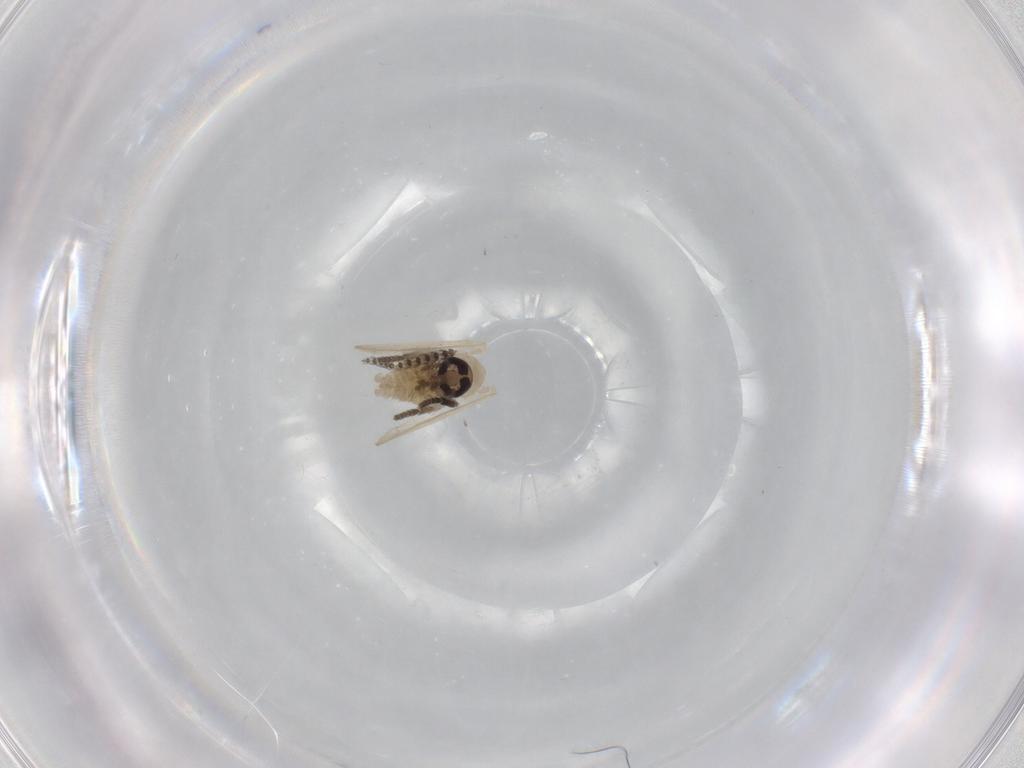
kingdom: Animalia
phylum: Arthropoda
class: Insecta
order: Diptera
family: Psychodidae
